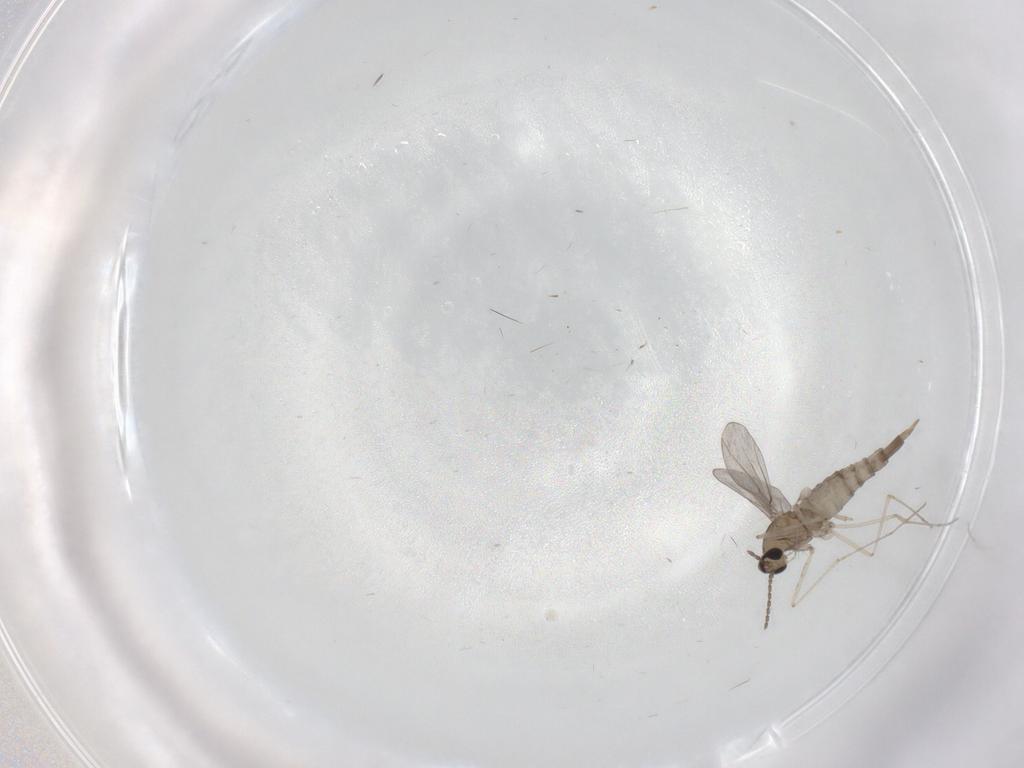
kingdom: Animalia
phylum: Arthropoda
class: Insecta
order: Diptera
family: Cecidomyiidae
